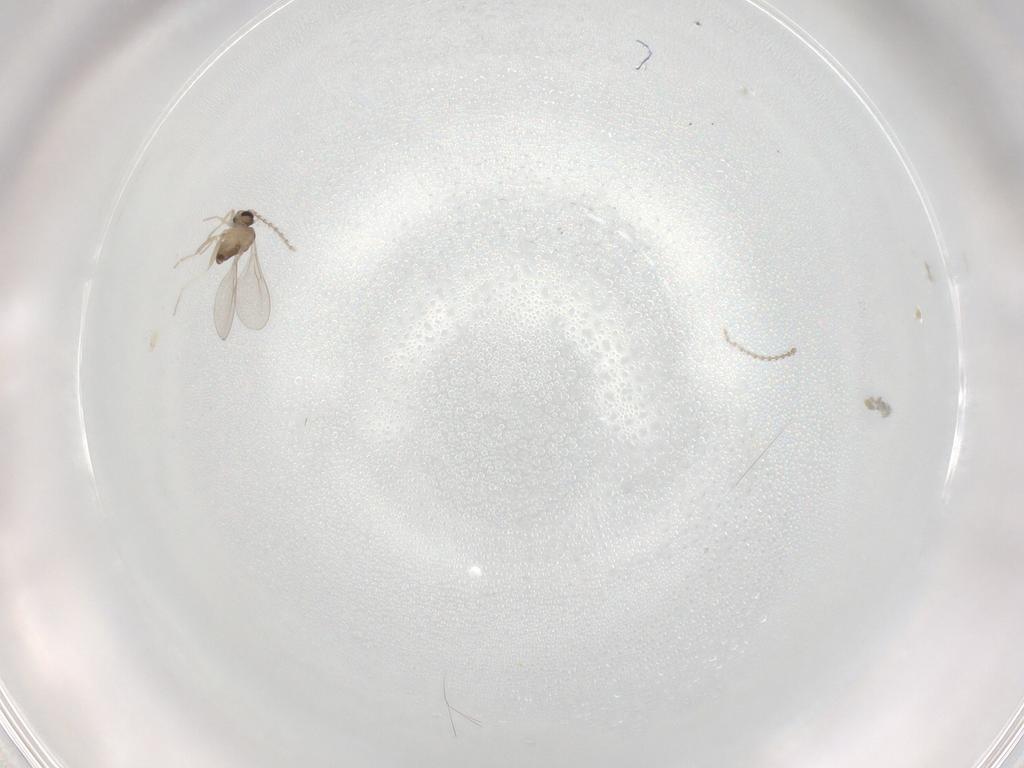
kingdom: Animalia
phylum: Arthropoda
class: Insecta
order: Diptera
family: Cecidomyiidae
